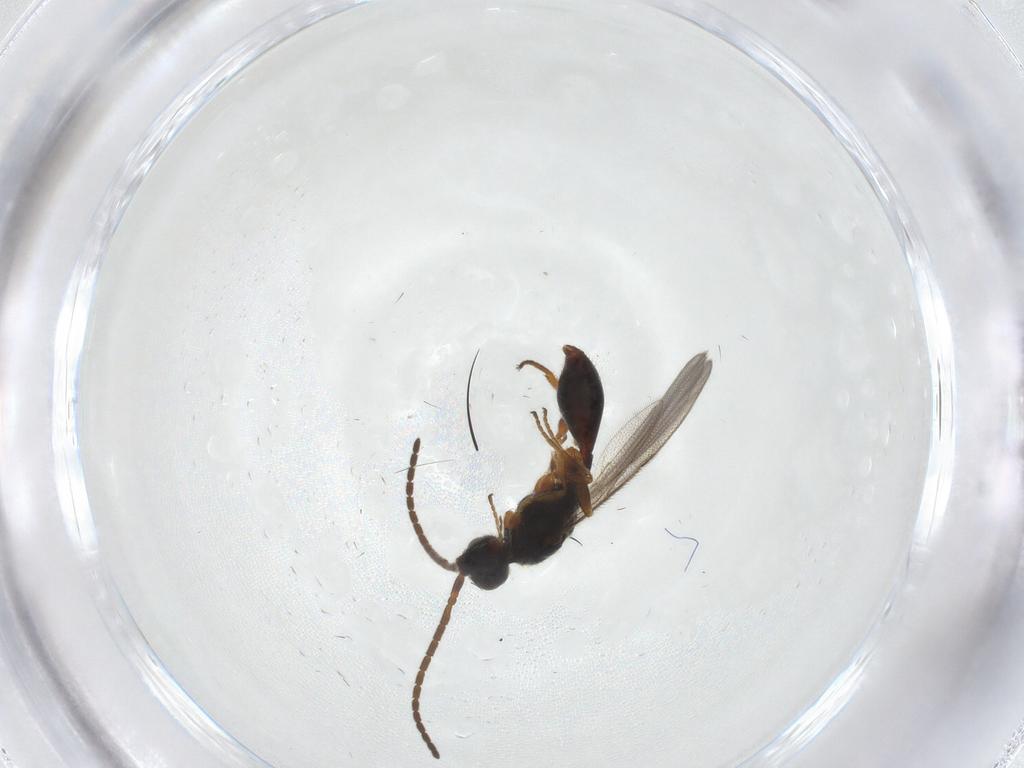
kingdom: Animalia
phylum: Arthropoda
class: Insecta
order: Hymenoptera
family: Diapriidae
